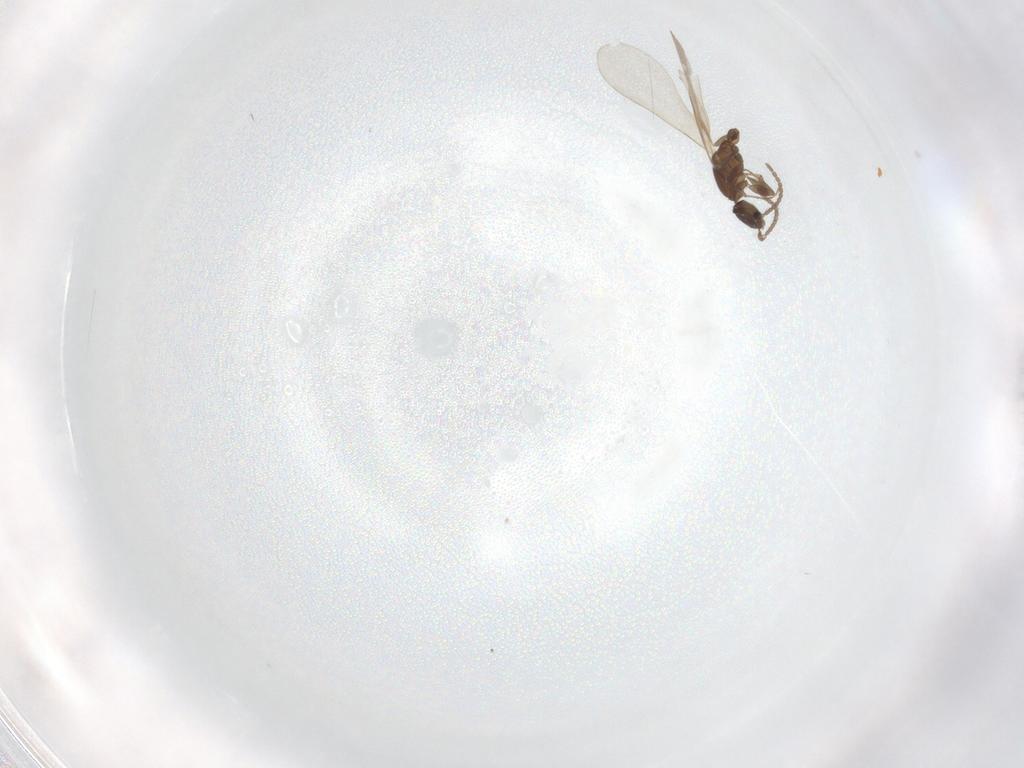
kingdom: Animalia
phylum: Arthropoda
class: Insecta
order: Hymenoptera
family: Formicidae
